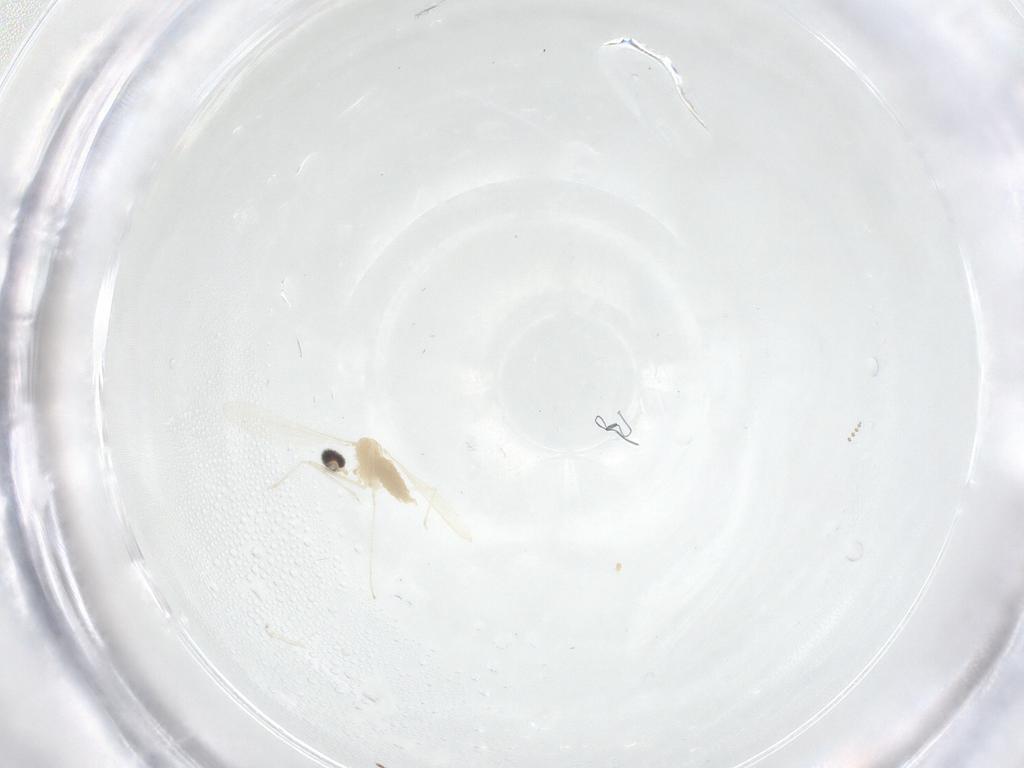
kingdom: Animalia
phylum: Arthropoda
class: Insecta
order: Diptera
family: Cecidomyiidae
